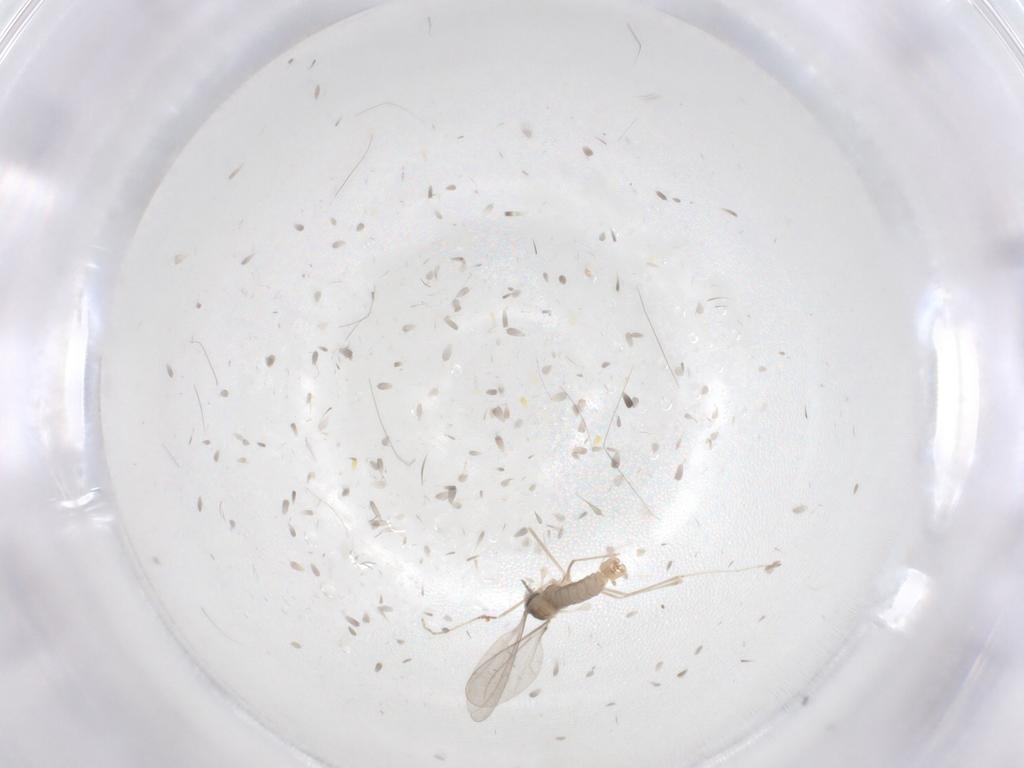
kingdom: Animalia
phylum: Arthropoda
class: Insecta
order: Diptera
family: Cecidomyiidae
